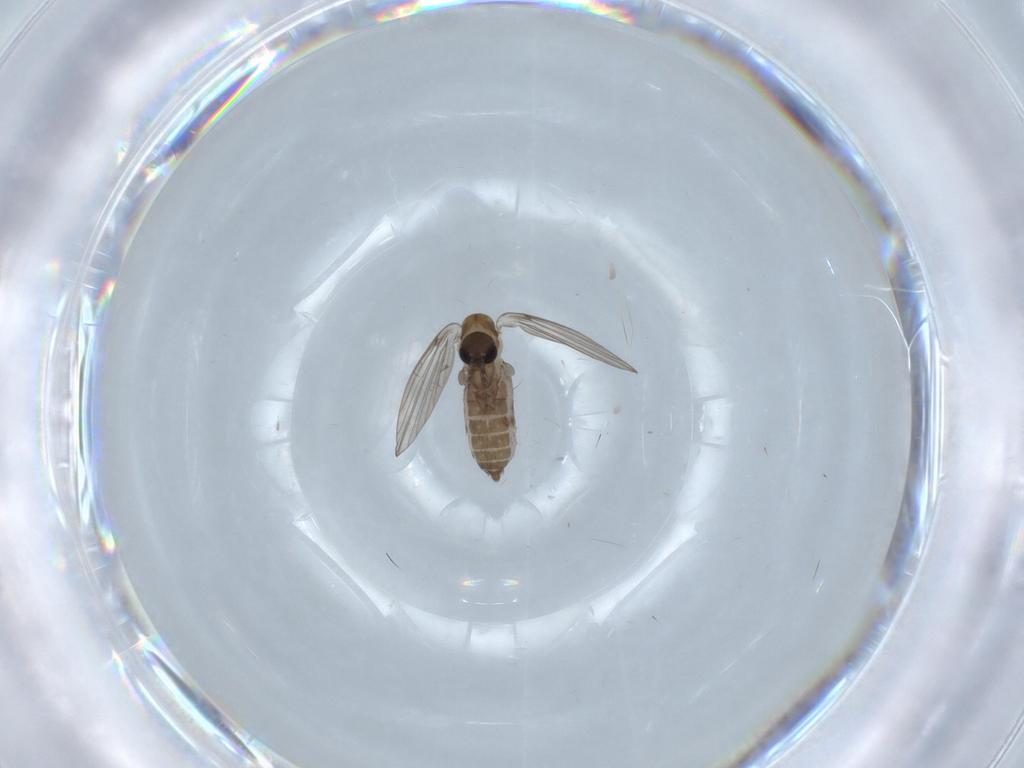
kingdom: Animalia
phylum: Arthropoda
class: Insecta
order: Diptera
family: Psychodidae
